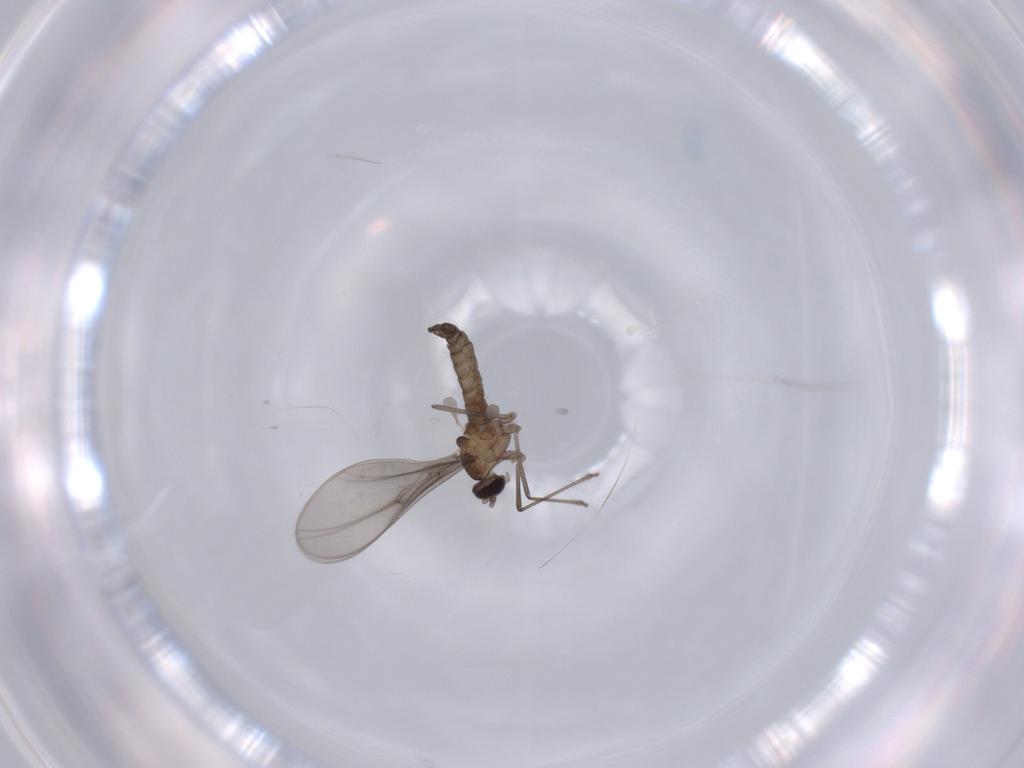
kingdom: Animalia
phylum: Arthropoda
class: Insecta
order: Diptera
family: Cecidomyiidae
